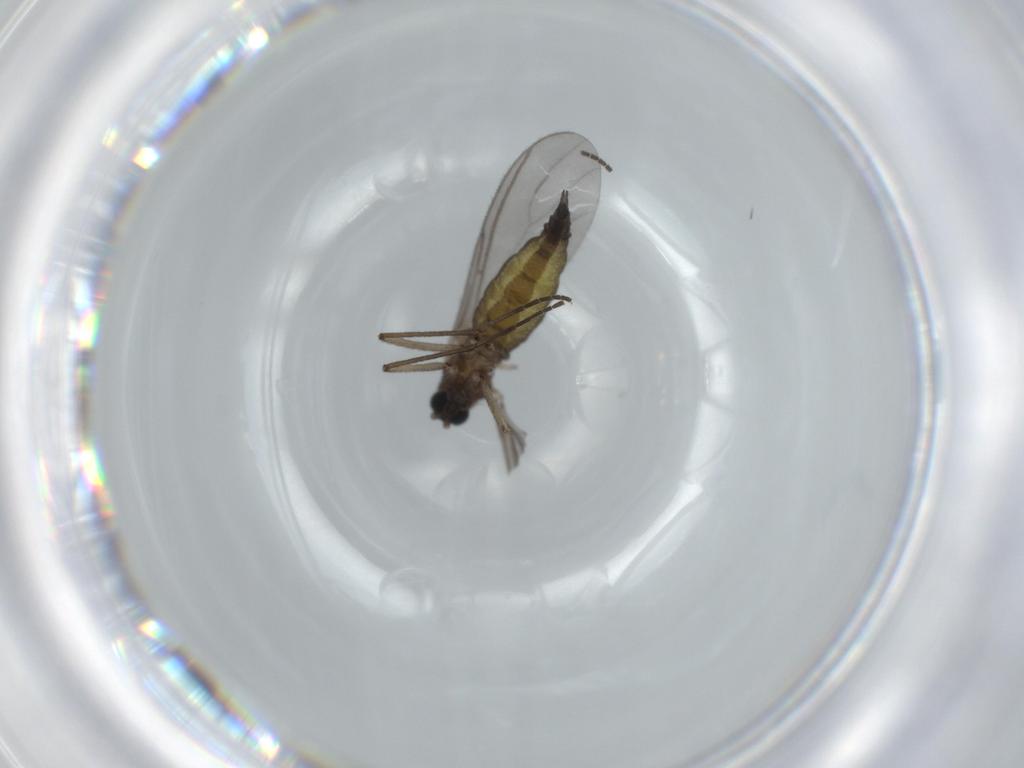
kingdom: Animalia
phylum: Arthropoda
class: Insecta
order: Diptera
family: Sciaridae
